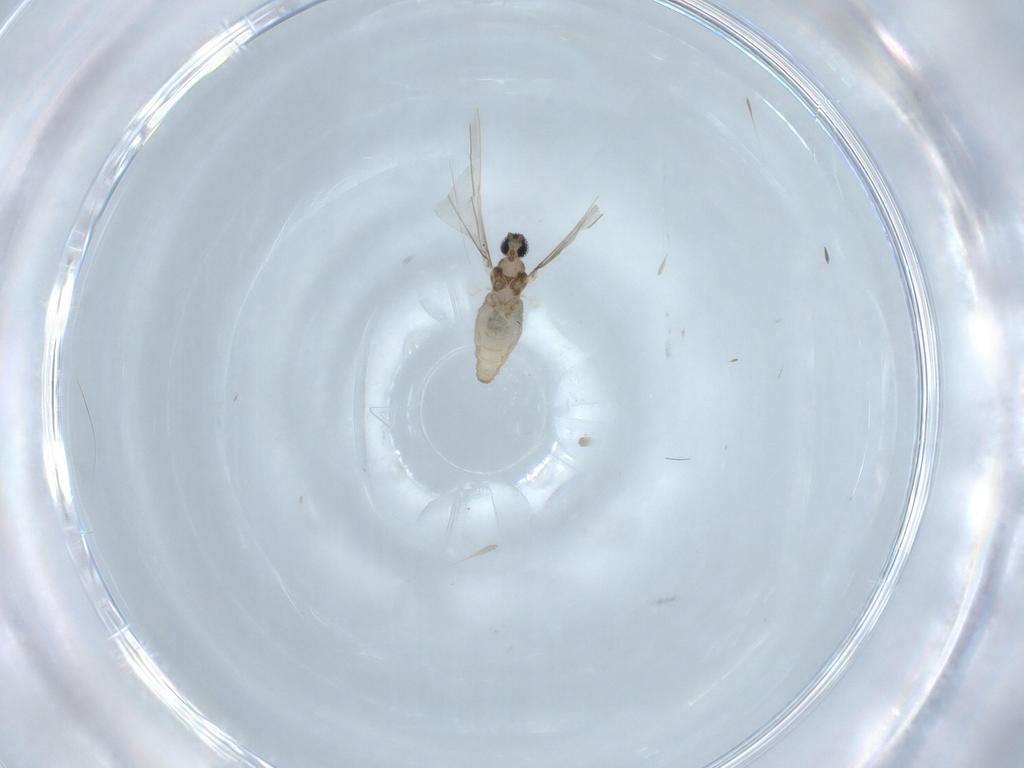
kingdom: Animalia
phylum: Arthropoda
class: Insecta
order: Diptera
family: Cecidomyiidae
